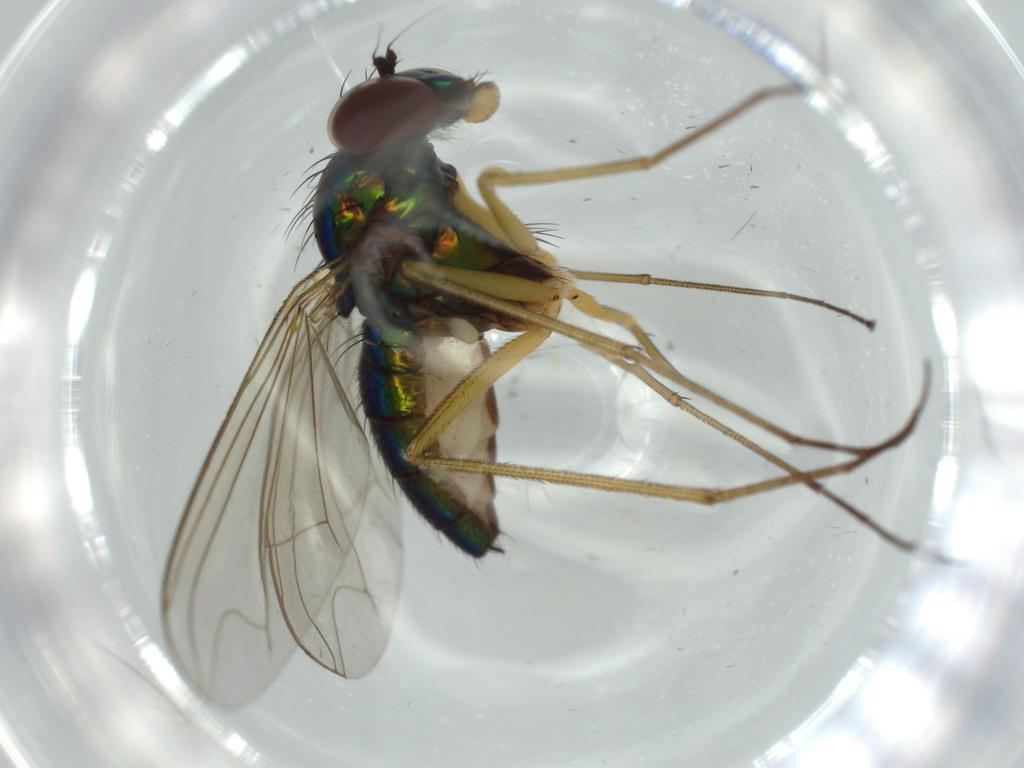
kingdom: Animalia
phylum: Arthropoda
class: Insecta
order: Diptera
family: Dolichopodidae
